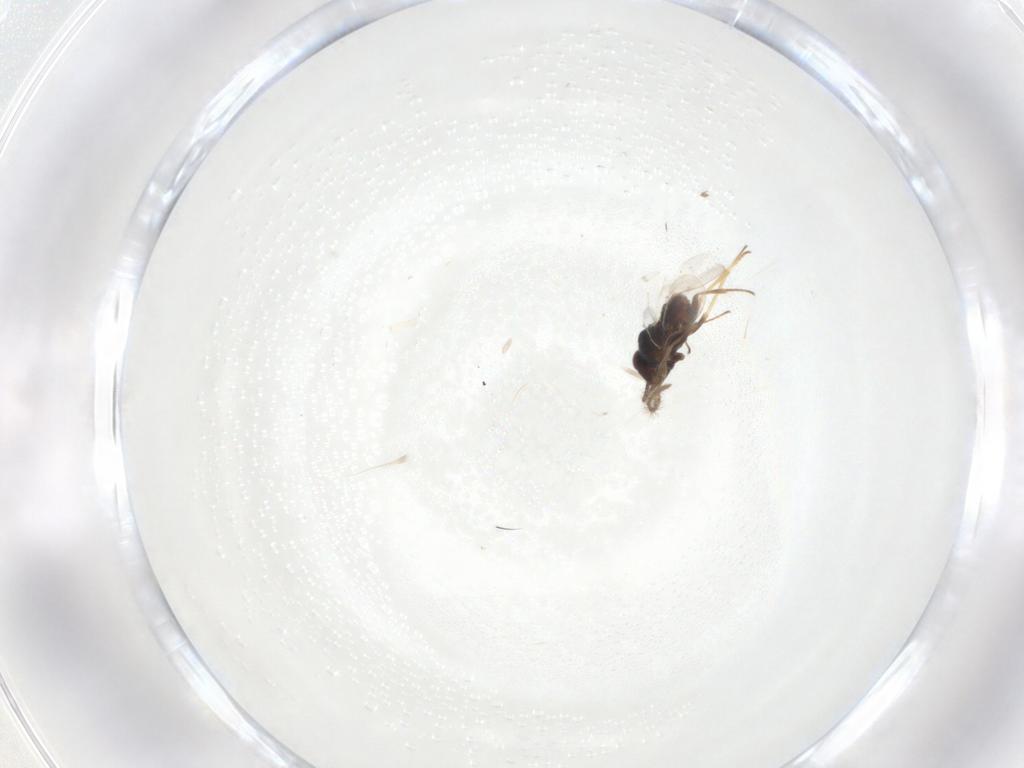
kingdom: Animalia
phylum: Arthropoda
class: Insecta
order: Hymenoptera
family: Encyrtidae
